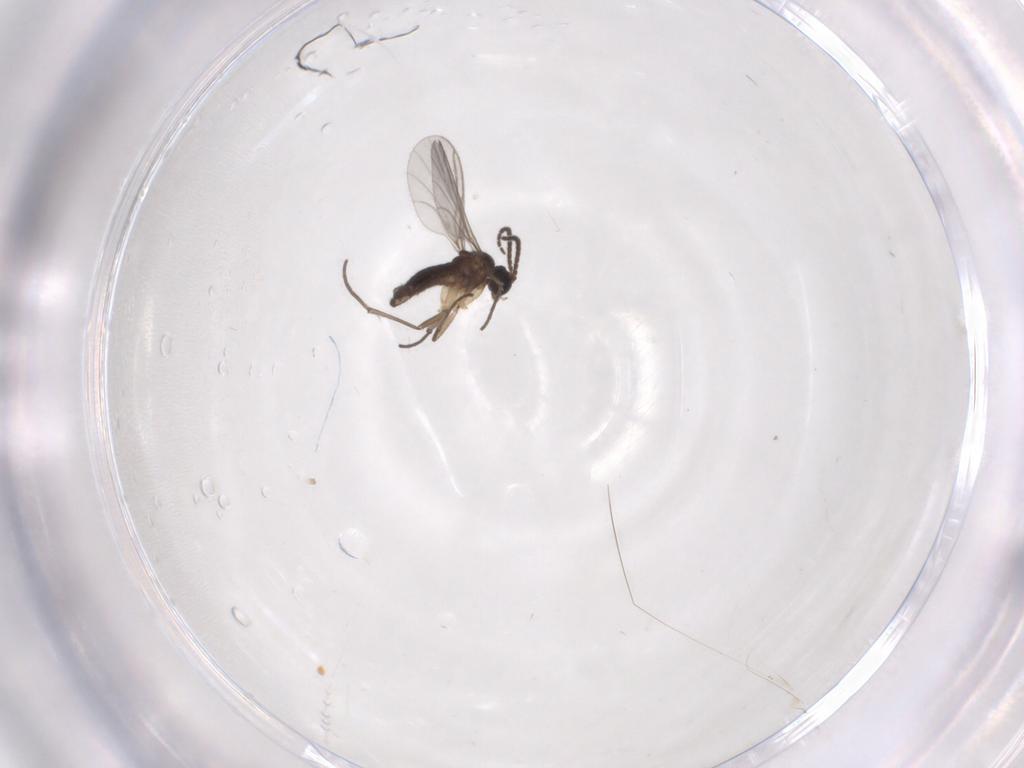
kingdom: Animalia
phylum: Arthropoda
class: Insecta
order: Diptera
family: Sciaridae
